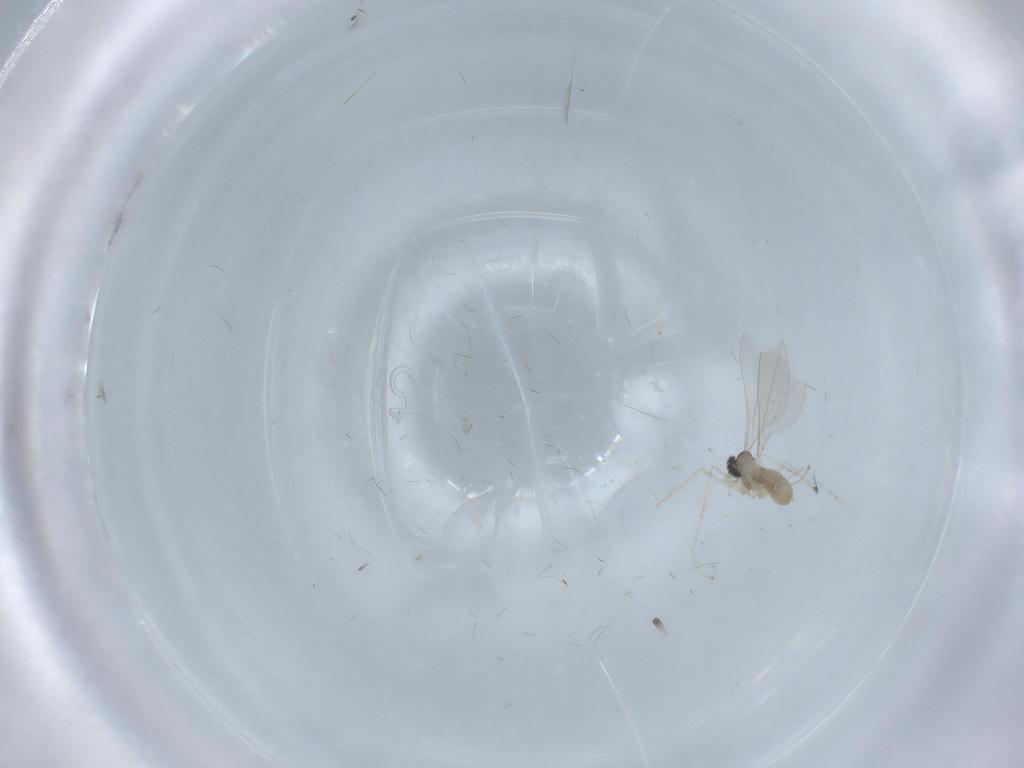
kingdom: Animalia
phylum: Arthropoda
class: Insecta
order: Diptera
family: Cecidomyiidae
